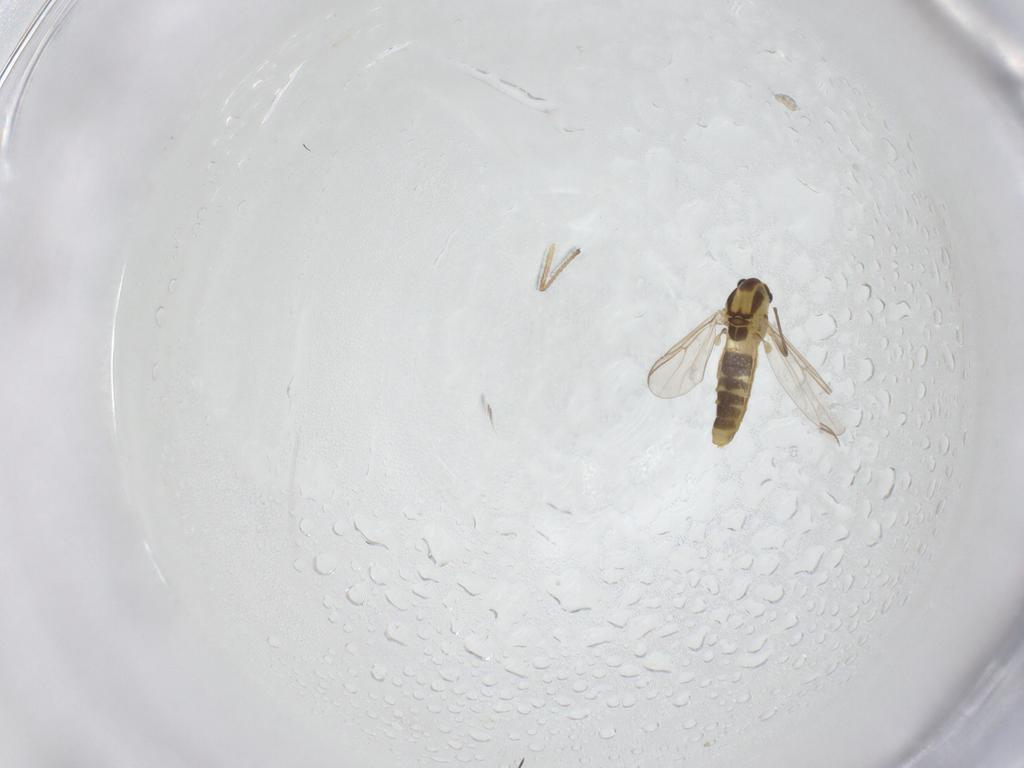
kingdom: Animalia
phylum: Arthropoda
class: Insecta
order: Diptera
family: Chironomidae
